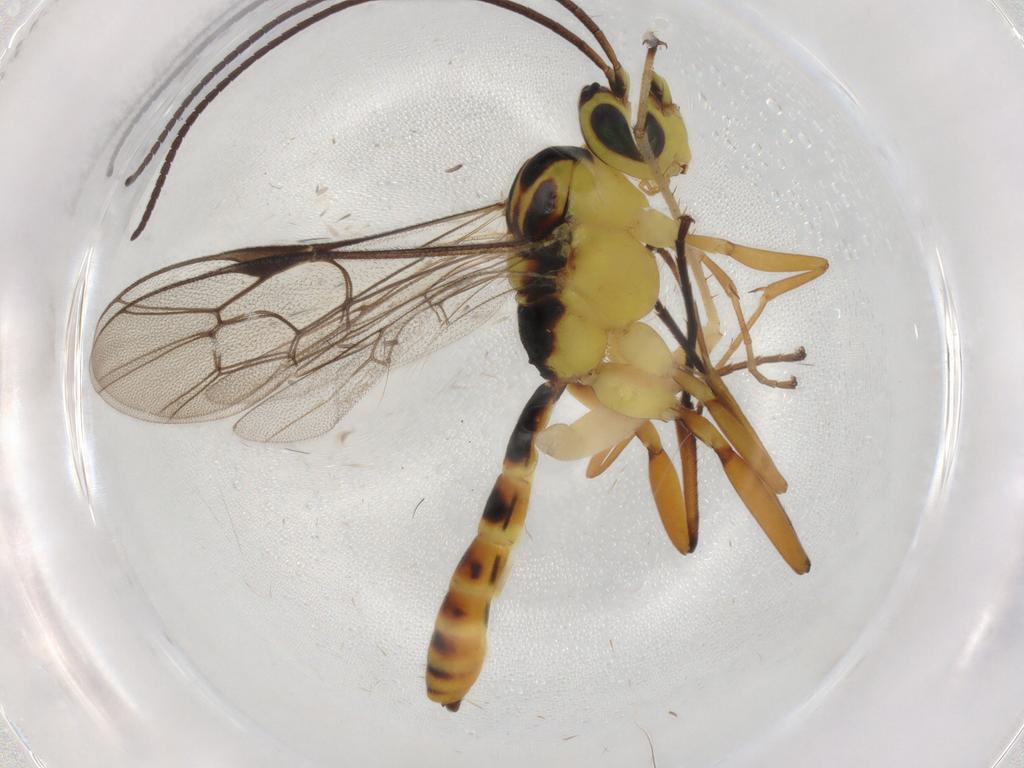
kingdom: Animalia
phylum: Arthropoda
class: Insecta
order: Hymenoptera
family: Ichneumonidae
